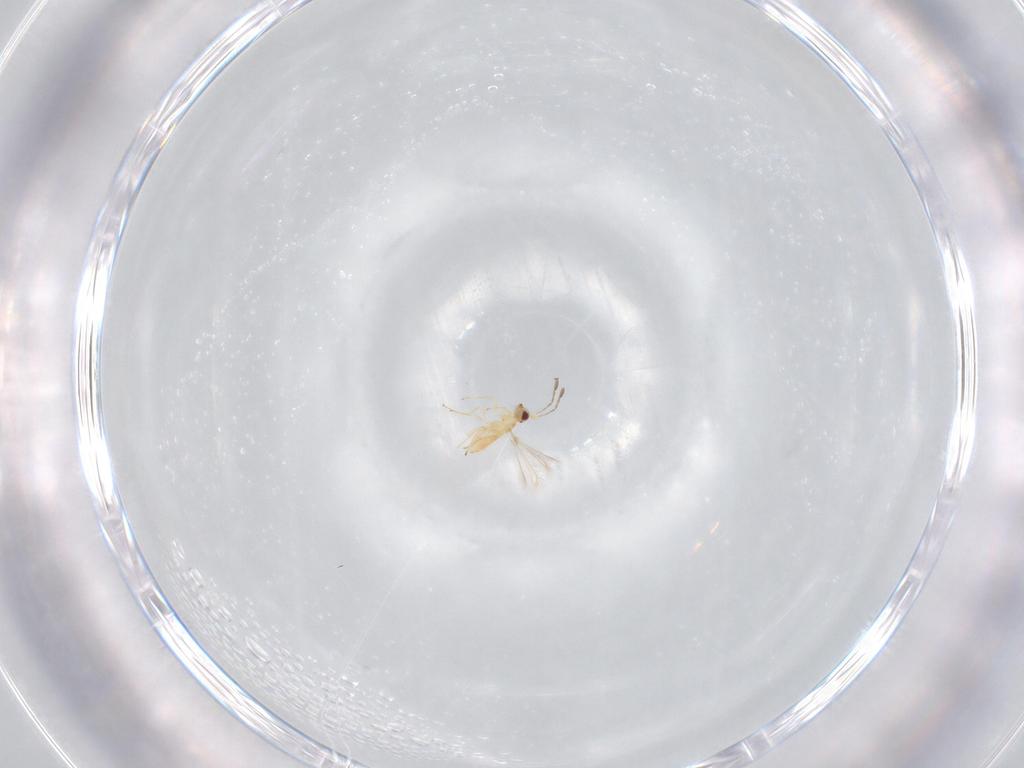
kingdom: Animalia
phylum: Arthropoda
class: Insecta
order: Hymenoptera
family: Mymaridae
